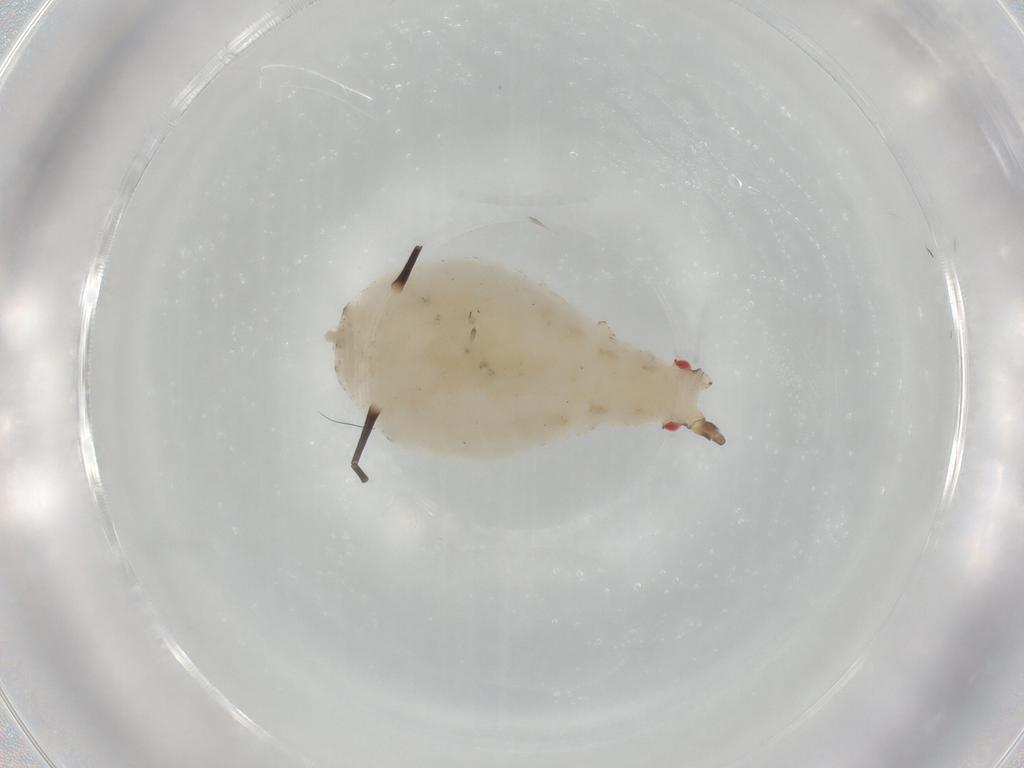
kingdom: Animalia
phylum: Arthropoda
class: Insecta
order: Hemiptera
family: Aphididae
